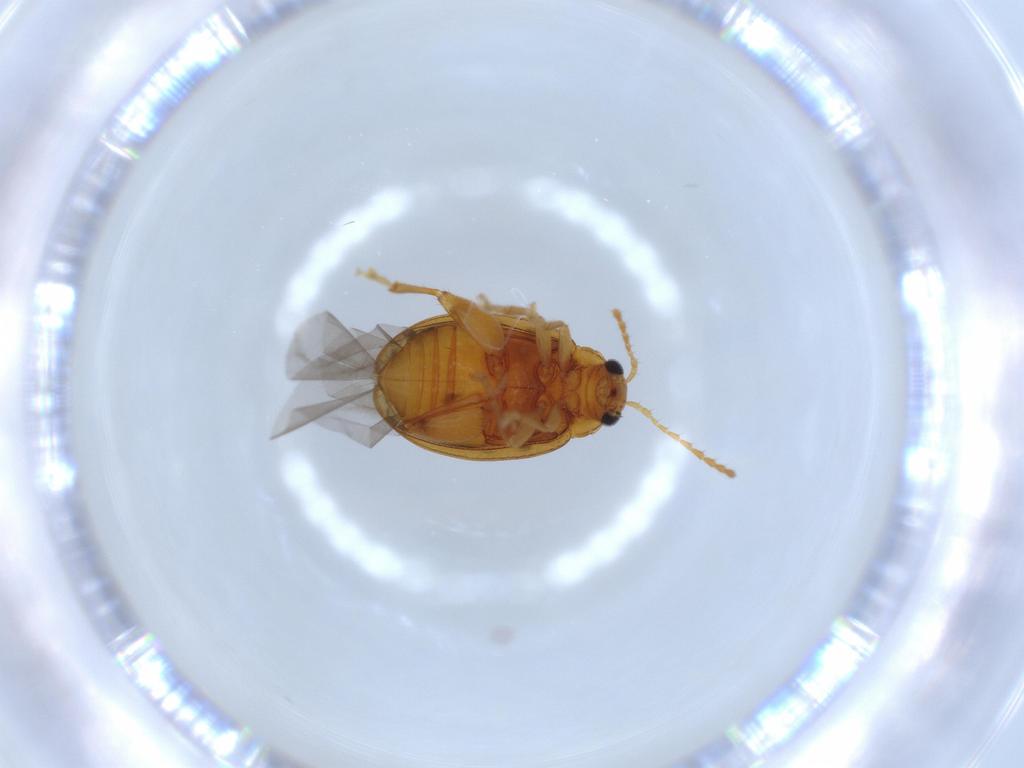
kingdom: Animalia
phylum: Arthropoda
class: Insecta
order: Coleoptera
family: Chrysomelidae
